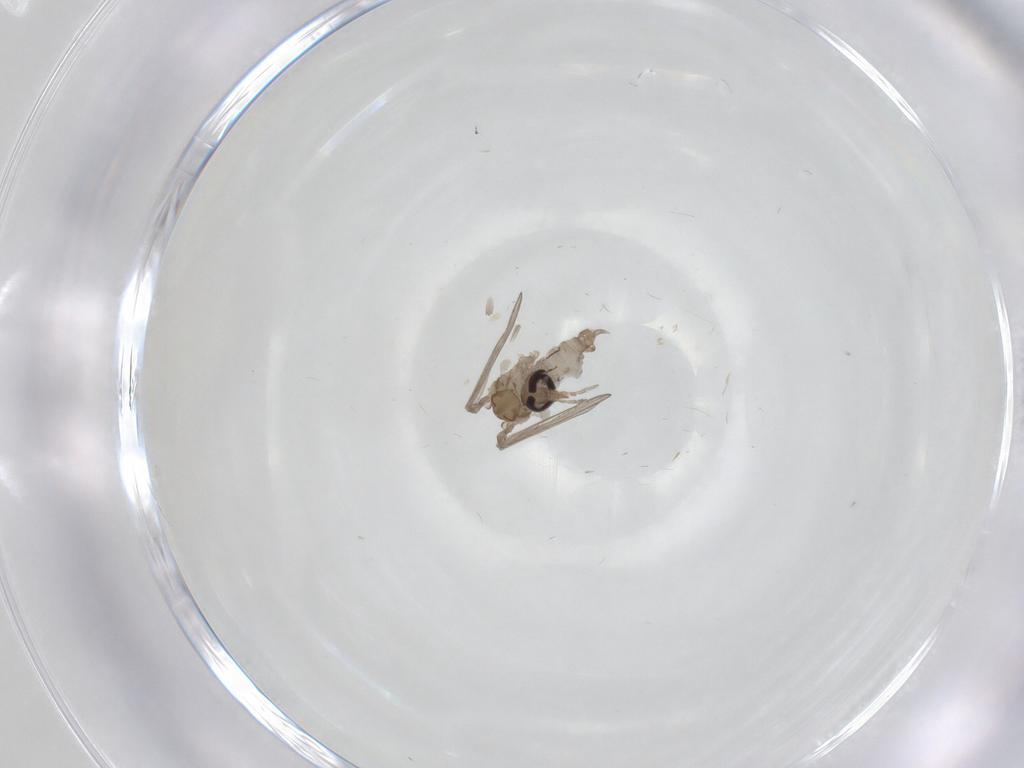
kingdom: Animalia
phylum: Arthropoda
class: Insecta
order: Diptera
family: Psychodidae
